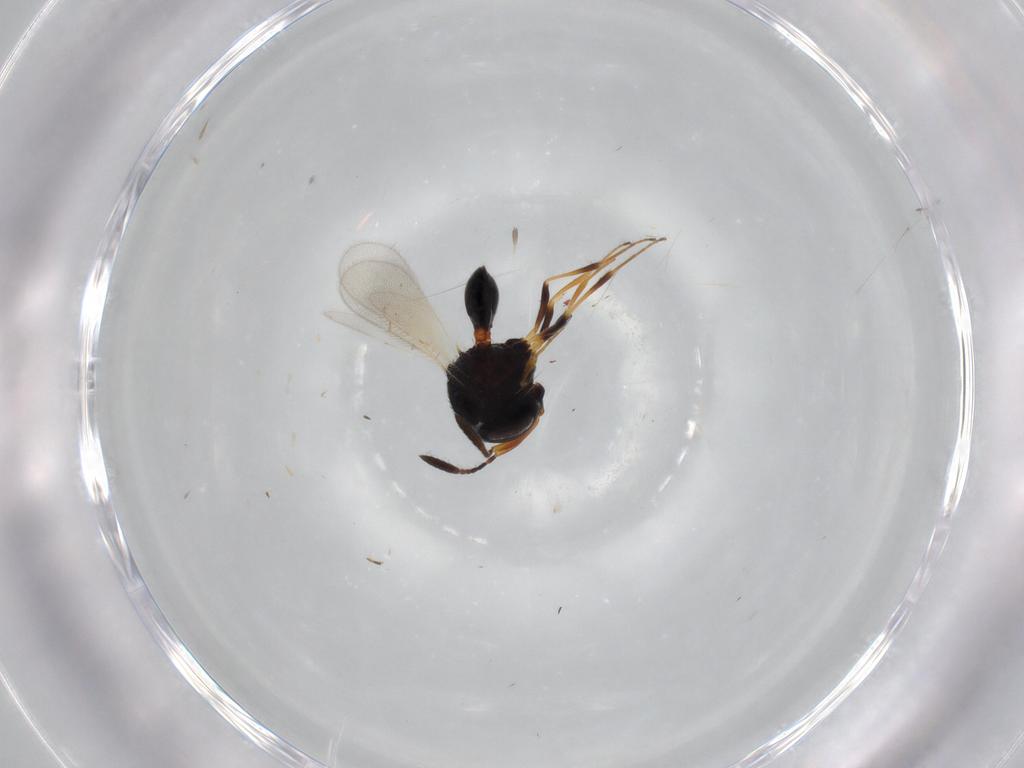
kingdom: Animalia
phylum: Arthropoda
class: Insecta
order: Hymenoptera
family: Scelionidae
